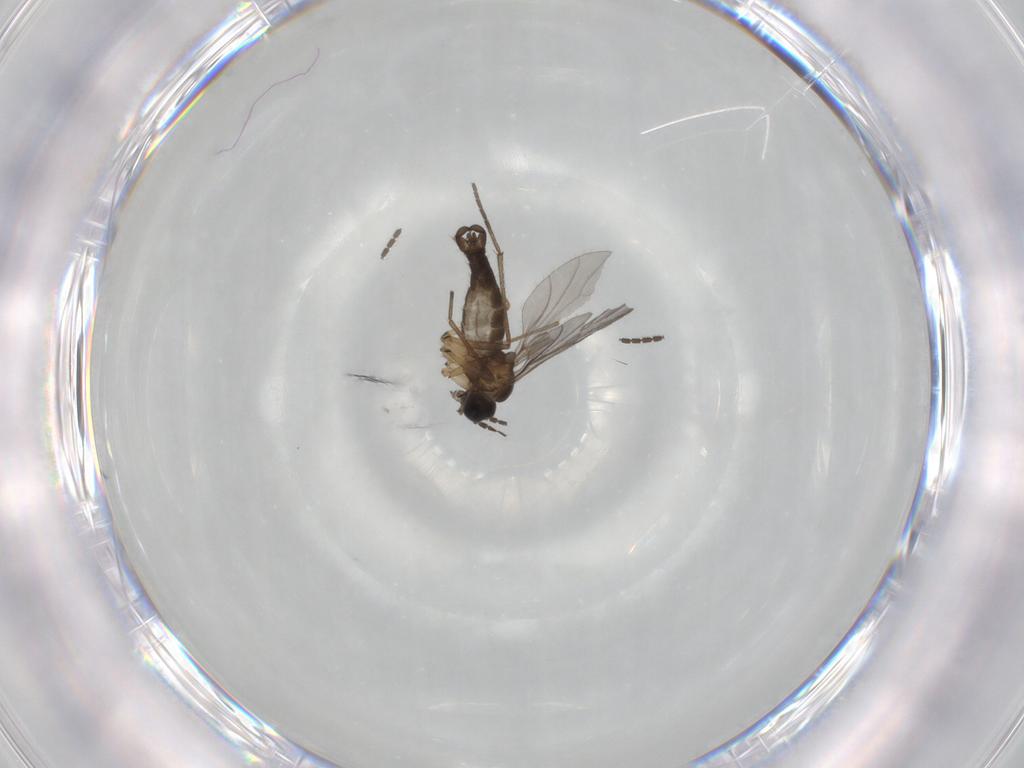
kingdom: Animalia
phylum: Arthropoda
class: Insecta
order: Diptera
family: Sciaridae
